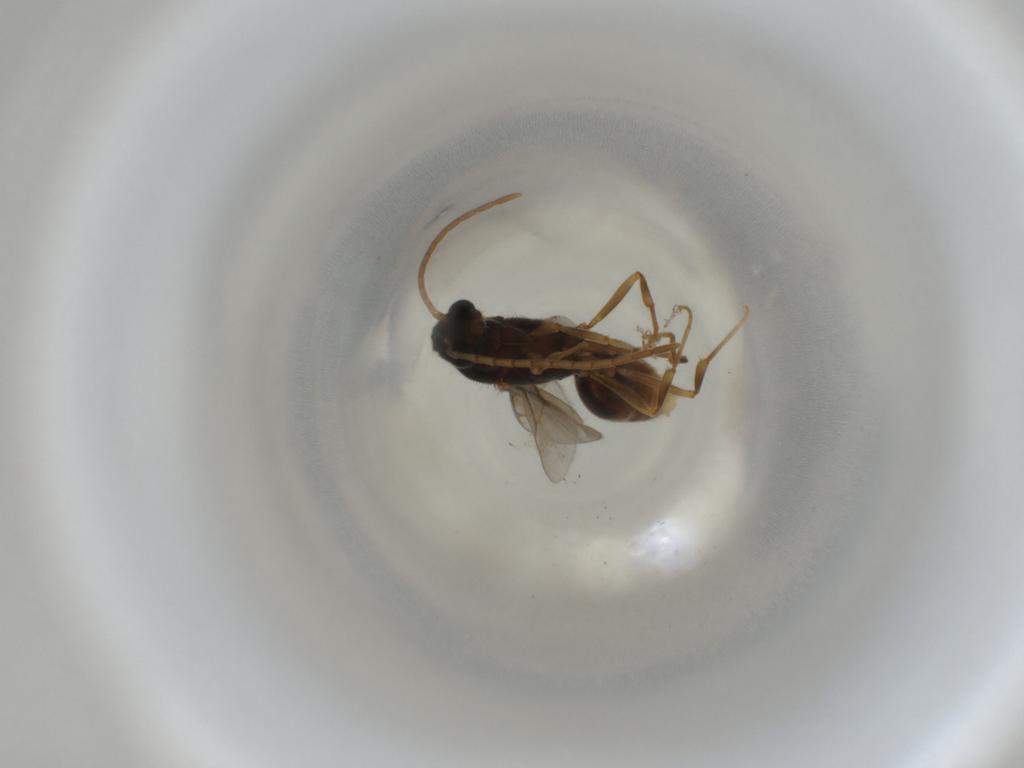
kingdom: Animalia
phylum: Arthropoda
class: Insecta
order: Hymenoptera
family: Formicidae
